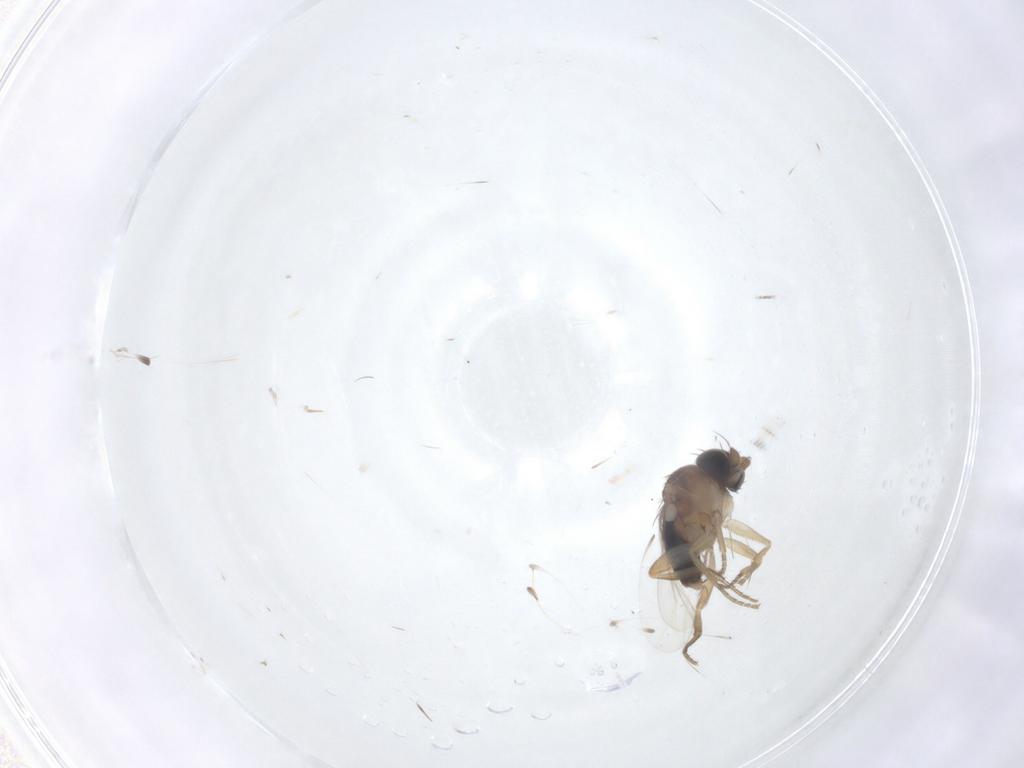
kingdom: Animalia
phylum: Arthropoda
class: Insecta
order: Diptera
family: Phoridae
